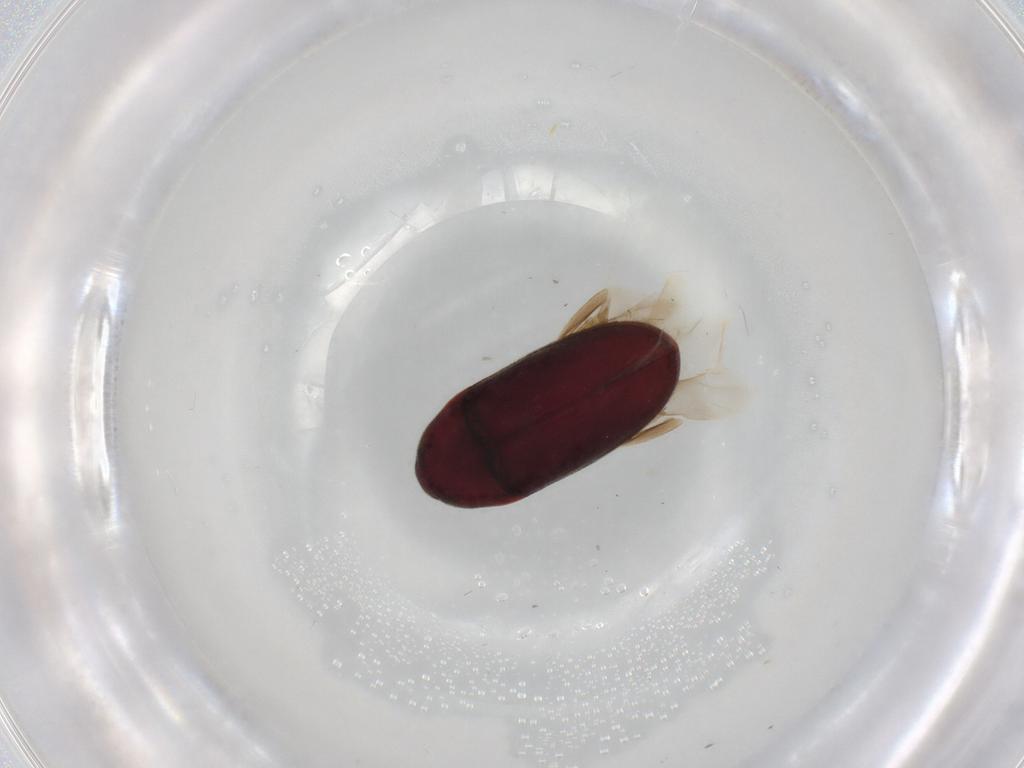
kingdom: Animalia
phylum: Arthropoda
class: Insecta
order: Coleoptera
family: Throscidae
